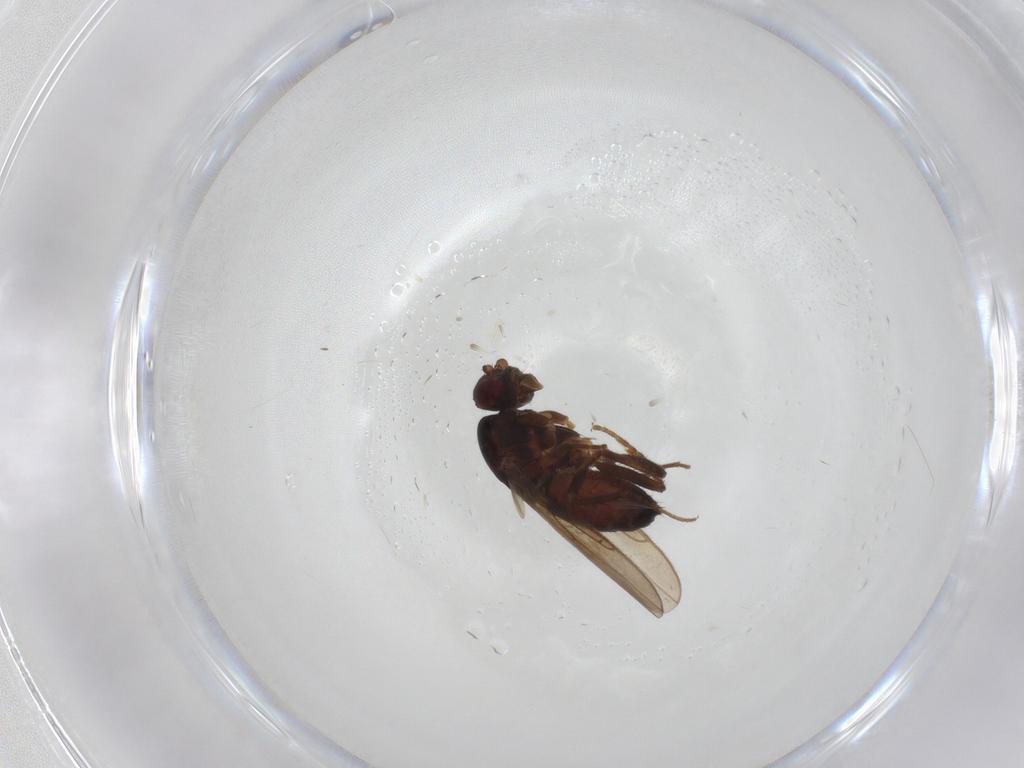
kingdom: Animalia
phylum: Arthropoda
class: Insecta
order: Diptera
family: Sphaeroceridae
